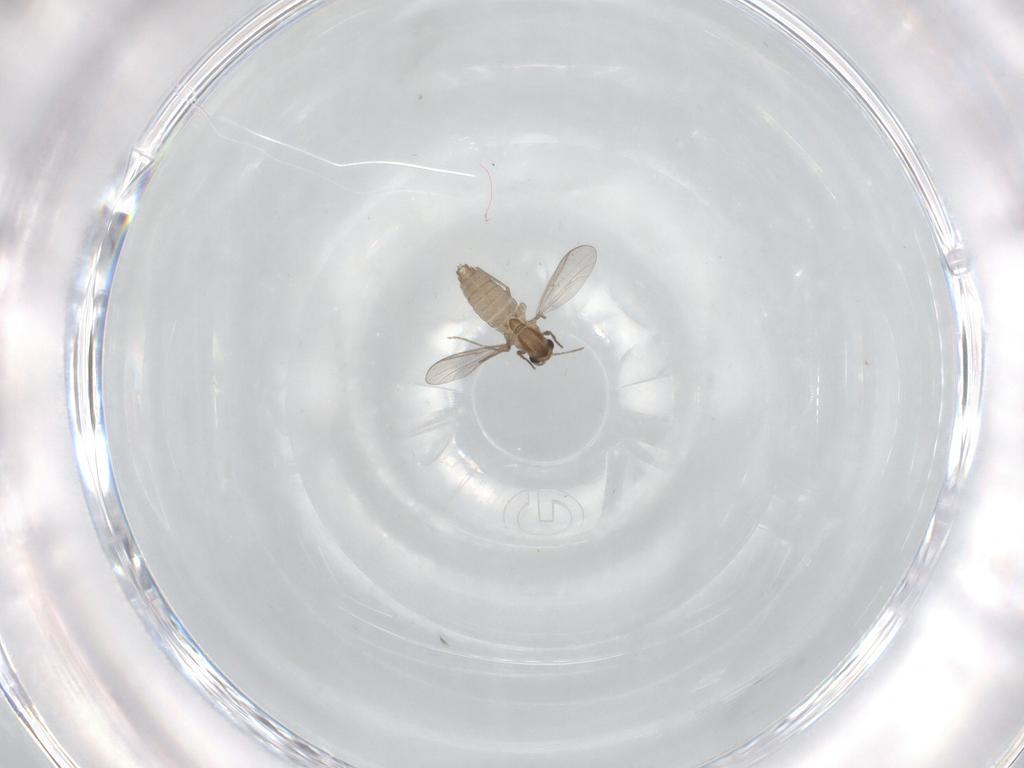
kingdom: Animalia
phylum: Arthropoda
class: Insecta
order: Diptera
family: Chironomidae
